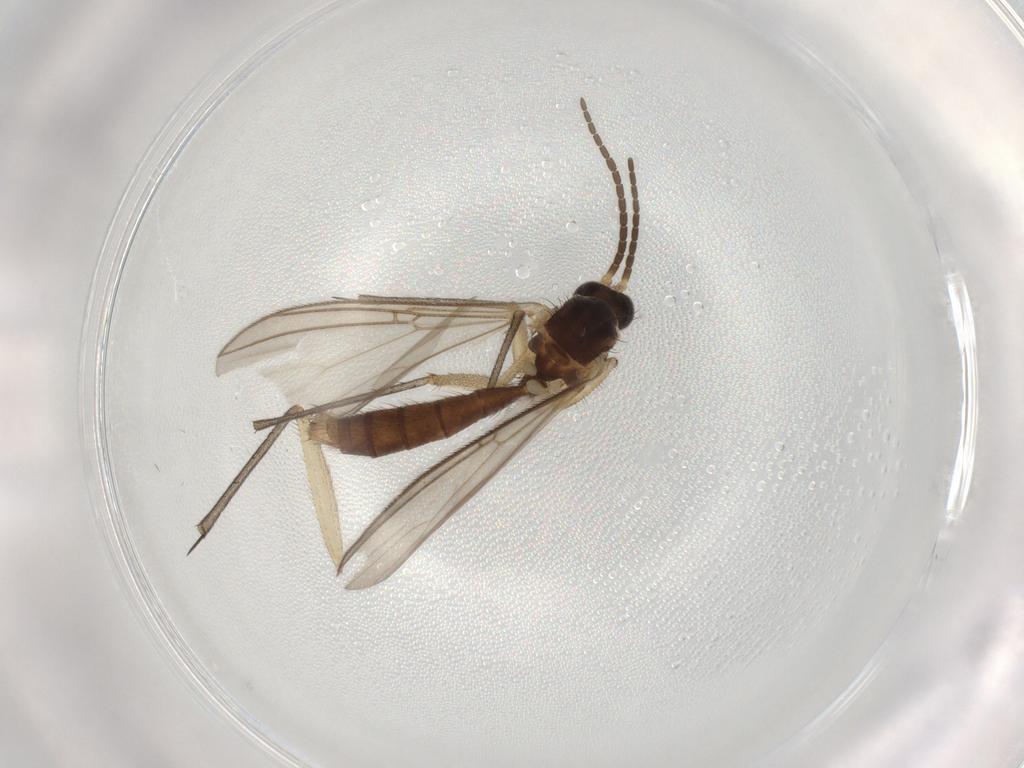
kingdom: Animalia
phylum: Arthropoda
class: Insecta
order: Diptera
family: Mycetophilidae
